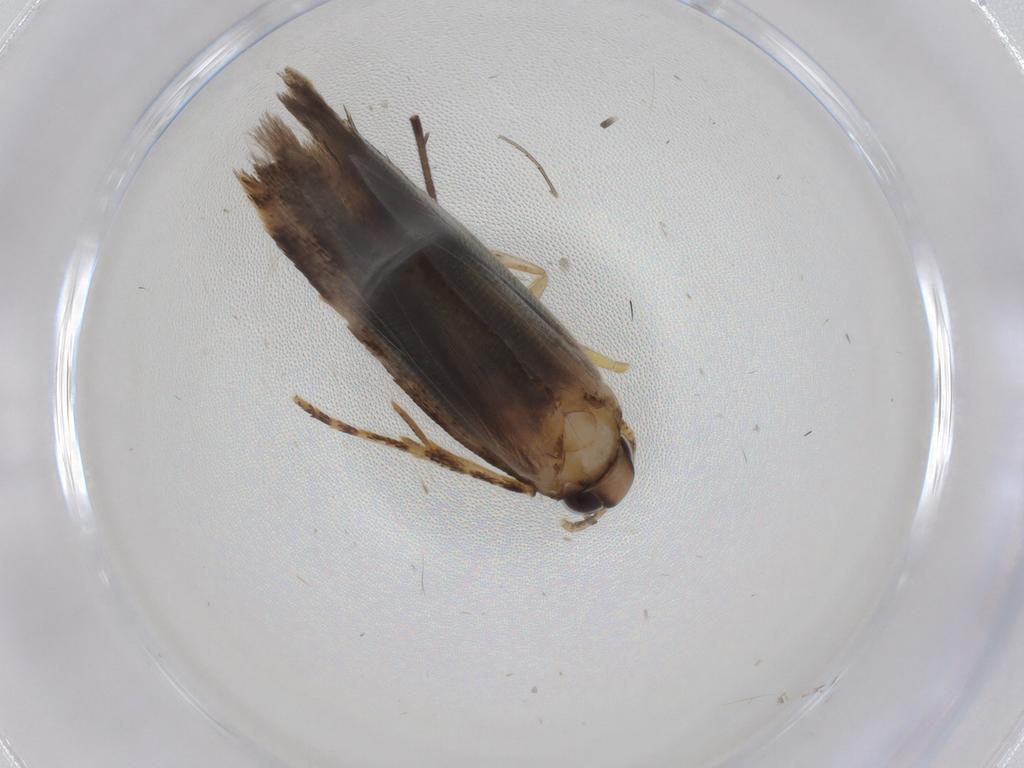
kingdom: Animalia
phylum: Arthropoda
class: Insecta
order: Lepidoptera
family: Gelechiidae
